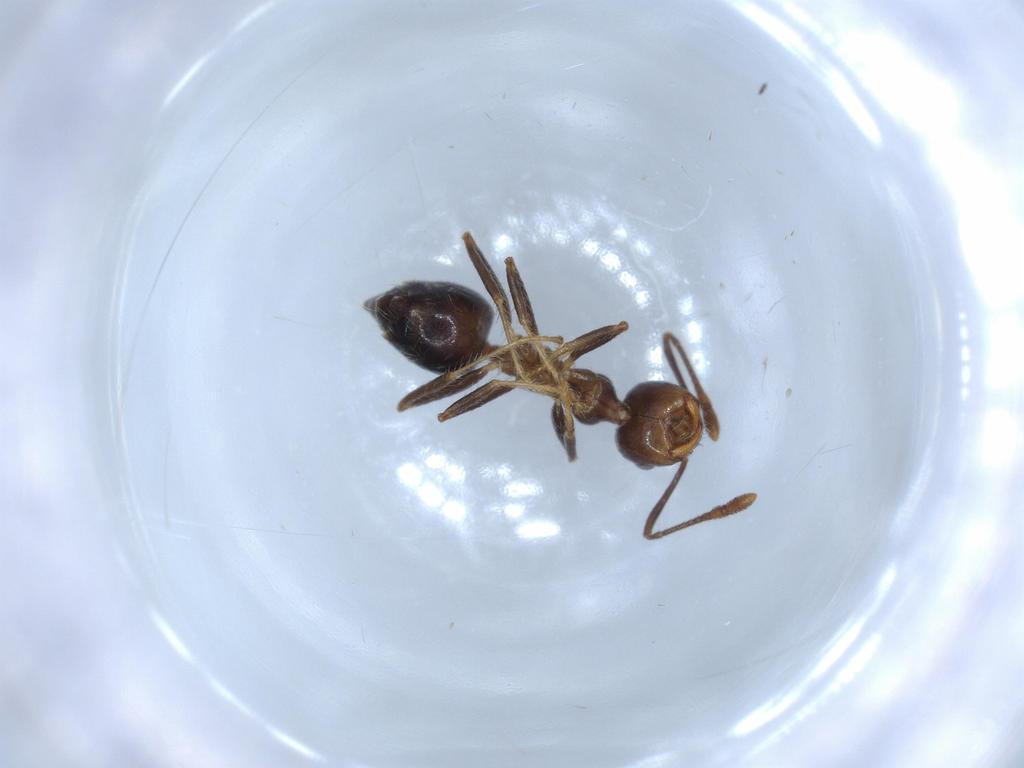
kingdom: Animalia
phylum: Arthropoda
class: Insecta
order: Hymenoptera
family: Formicidae
